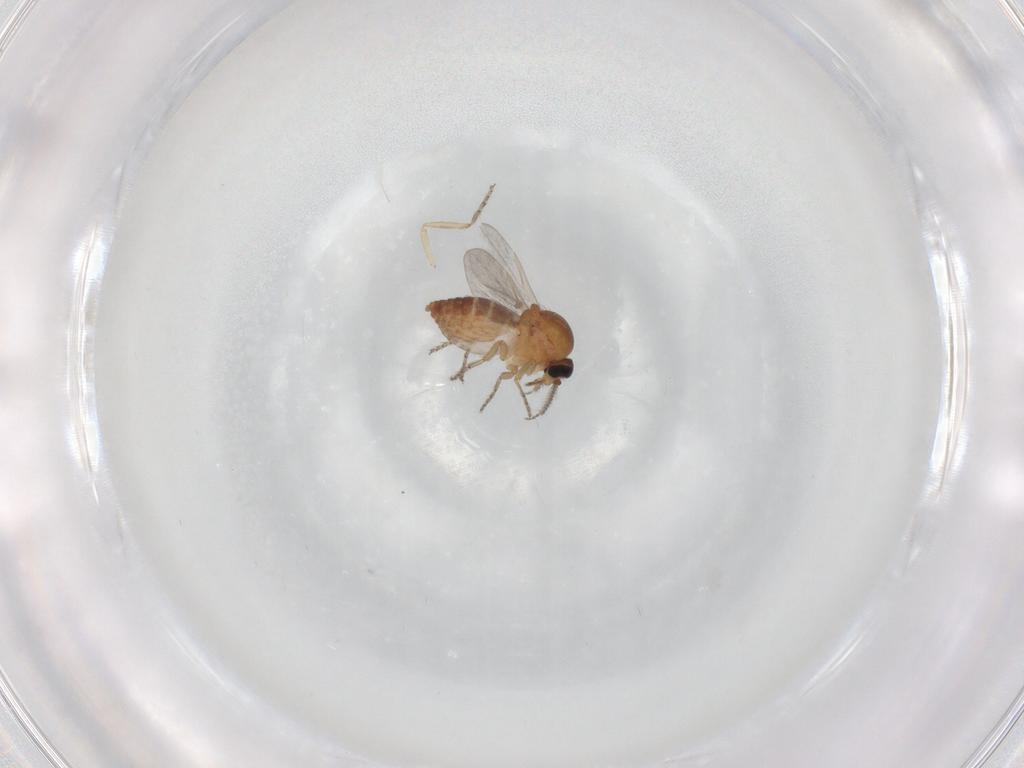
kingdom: Animalia
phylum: Arthropoda
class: Insecta
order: Diptera
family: Ceratopogonidae
